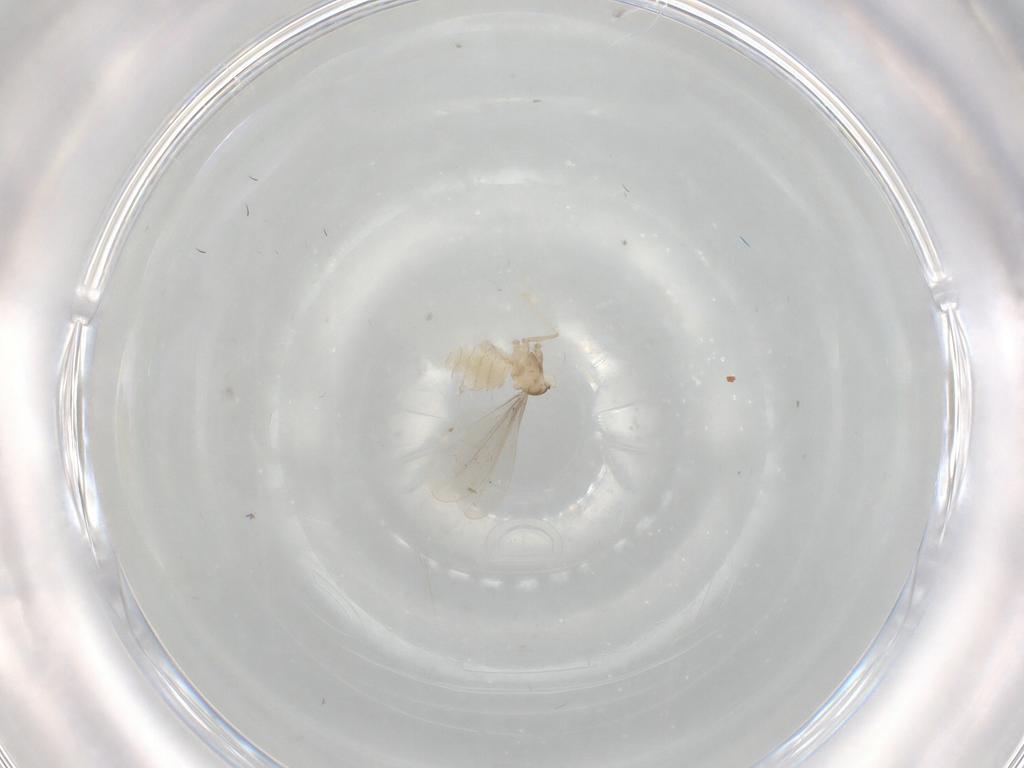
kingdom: Animalia
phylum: Arthropoda
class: Insecta
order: Diptera
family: Cecidomyiidae
